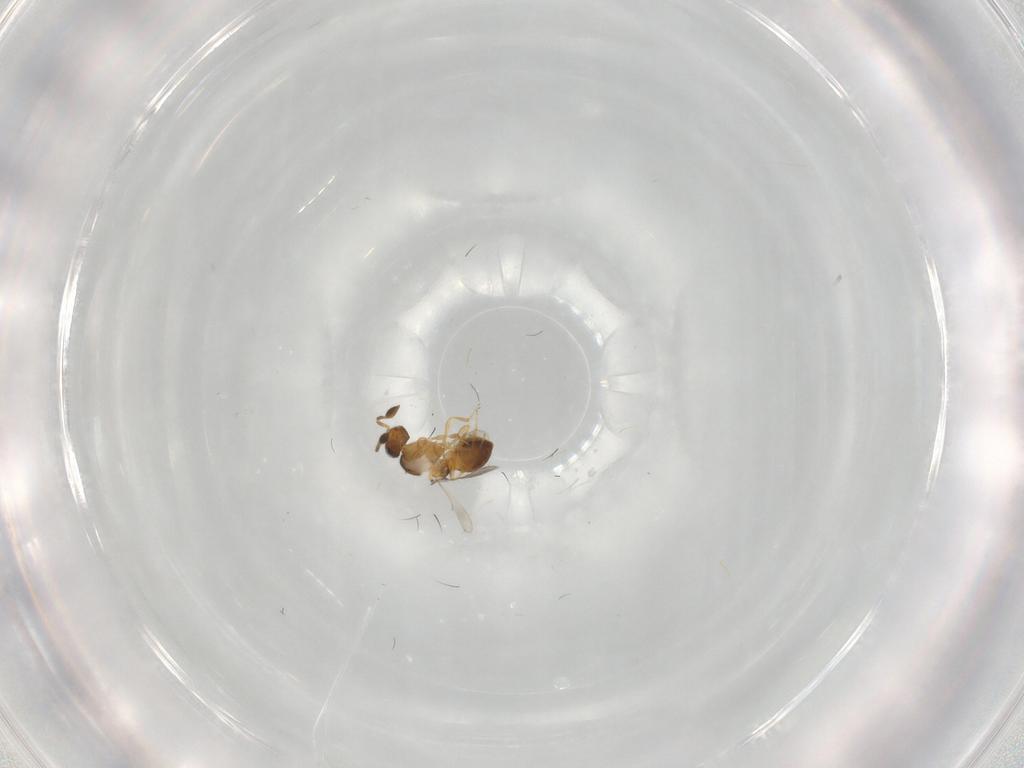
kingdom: Animalia
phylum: Arthropoda
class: Insecta
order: Hymenoptera
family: Scelionidae
